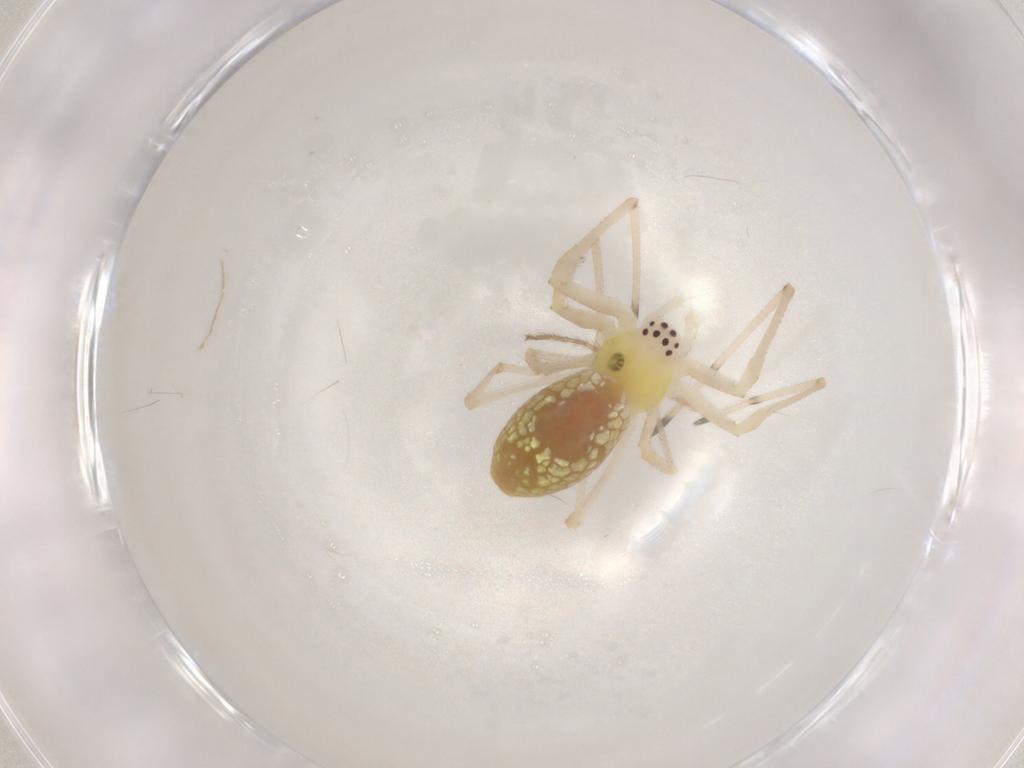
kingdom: Animalia
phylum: Arthropoda
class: Arachnida
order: Araneae
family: Tetragnathidae
